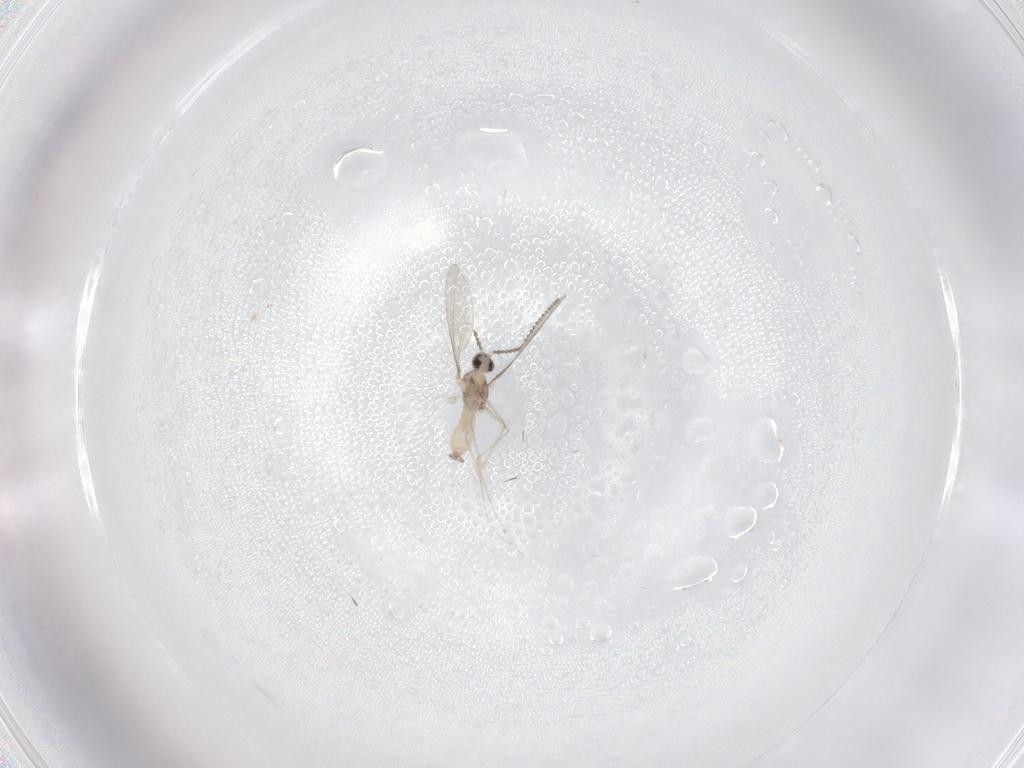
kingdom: Animalia
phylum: Arthropoda
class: Insecta
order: Diptera
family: Cecidomyiidae
